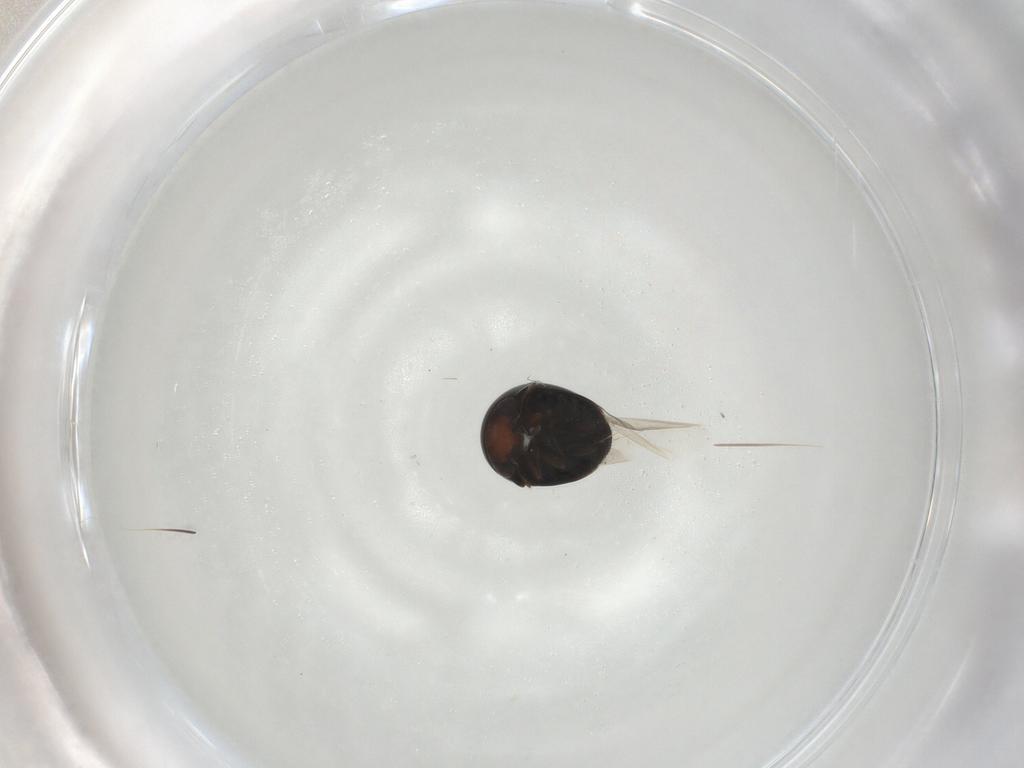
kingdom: Animalia
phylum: Arthropoda
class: Insecta
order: Coleoptera
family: Cybocephalidae
